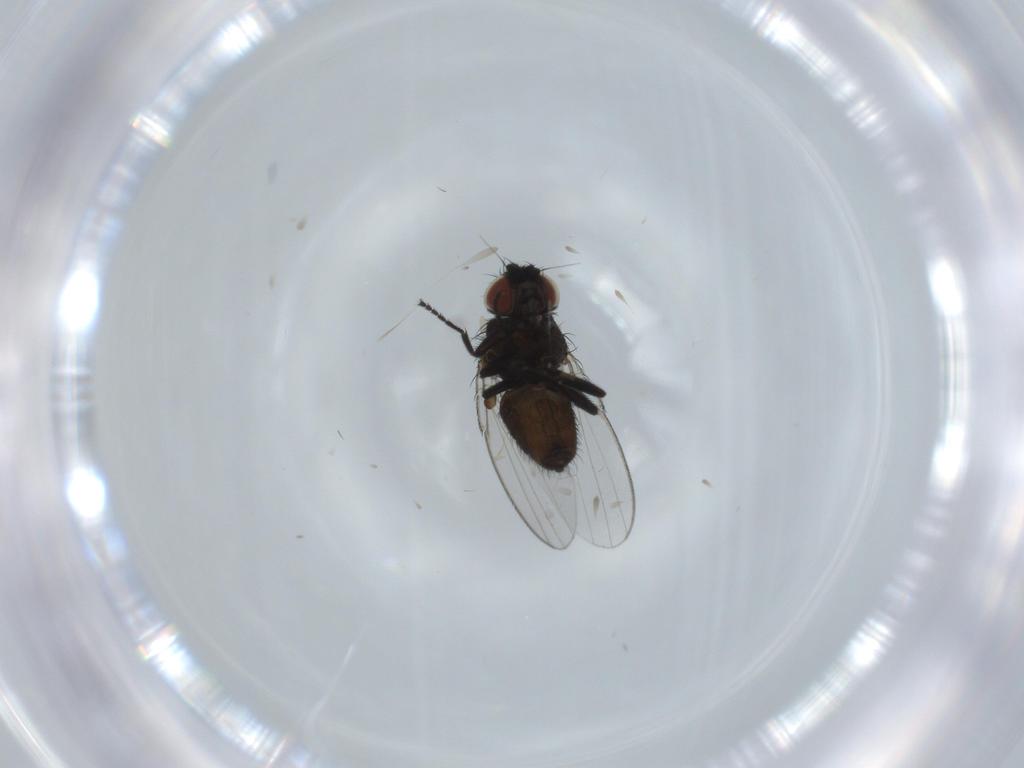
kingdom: Animalia
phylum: Arthropoda
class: Insecta
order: Diptera
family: Milichiidae
